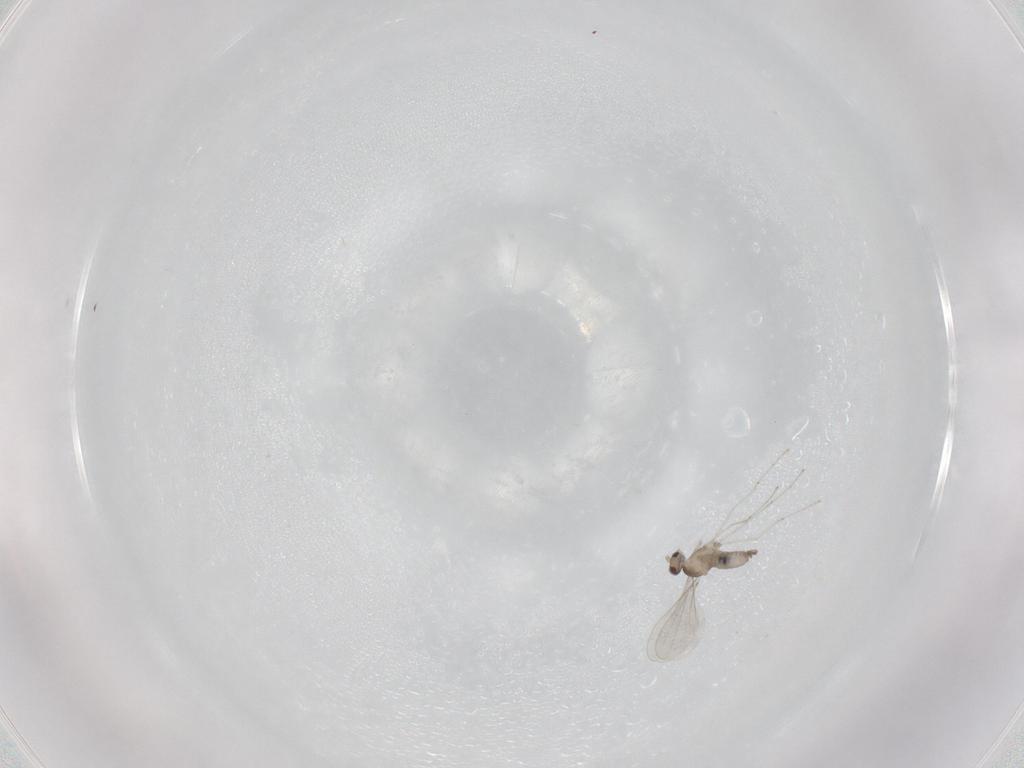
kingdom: Animalia
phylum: Arthropoda
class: Insecta
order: Diptera
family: Cecidomyiidae
